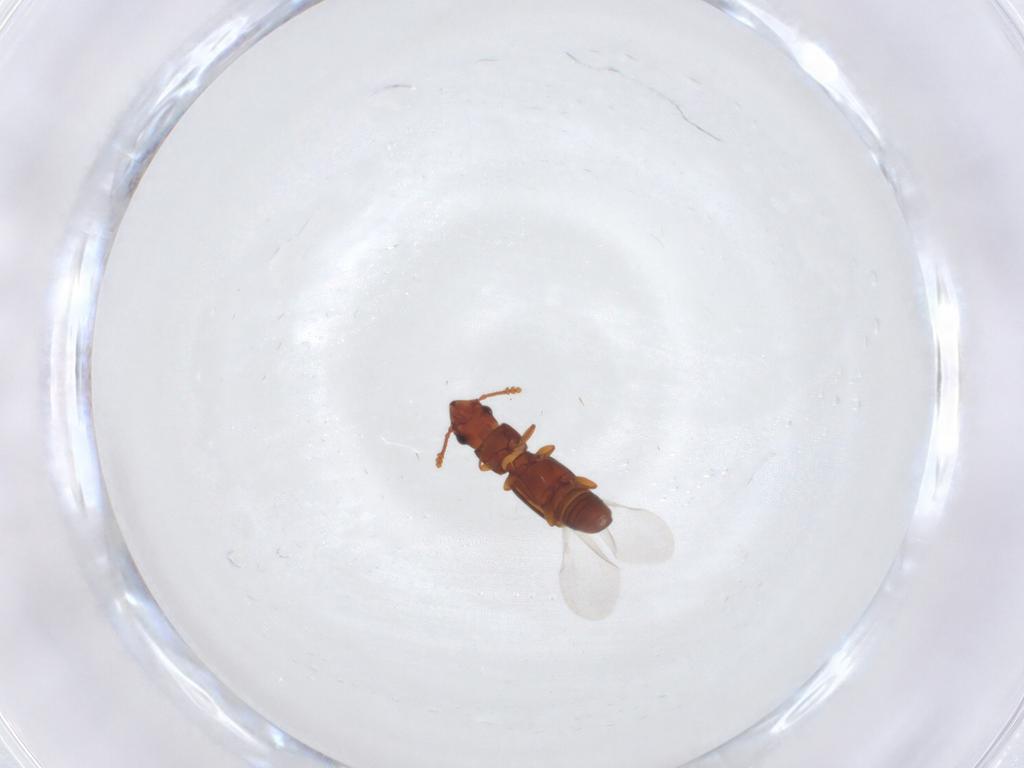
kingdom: Animalia
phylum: Arthropoda
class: Insecta
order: Coleoptera
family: Smicripidae
